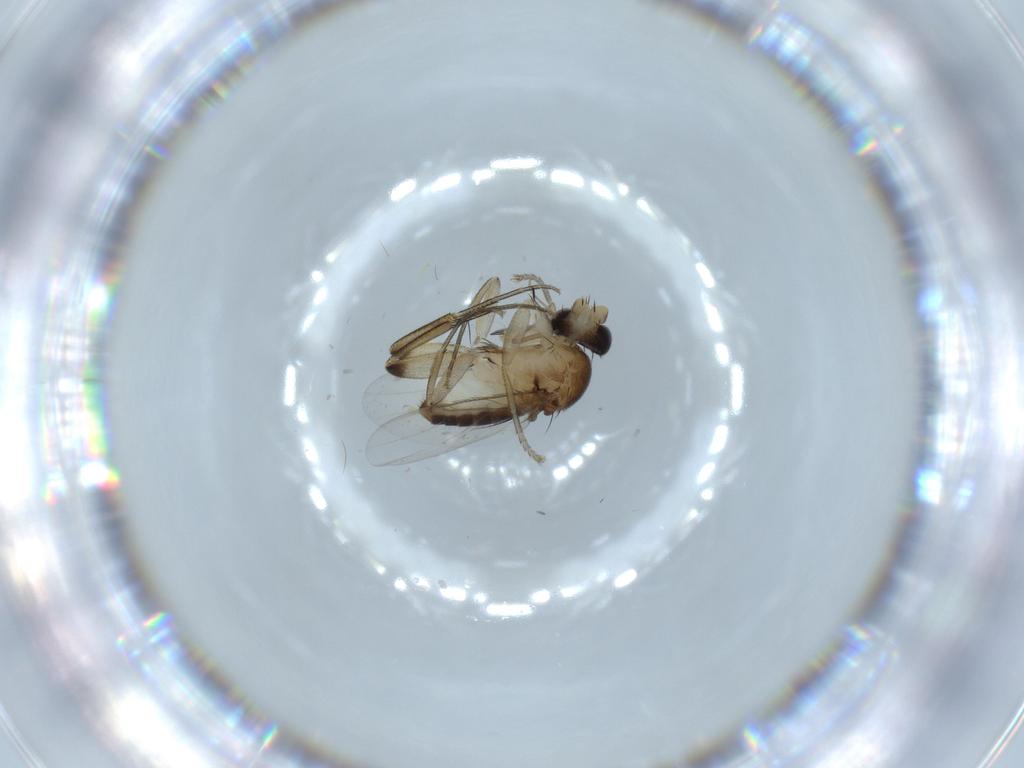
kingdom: Animalia
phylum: Arthropoda
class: Insecta
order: Diptera
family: Phoridae
